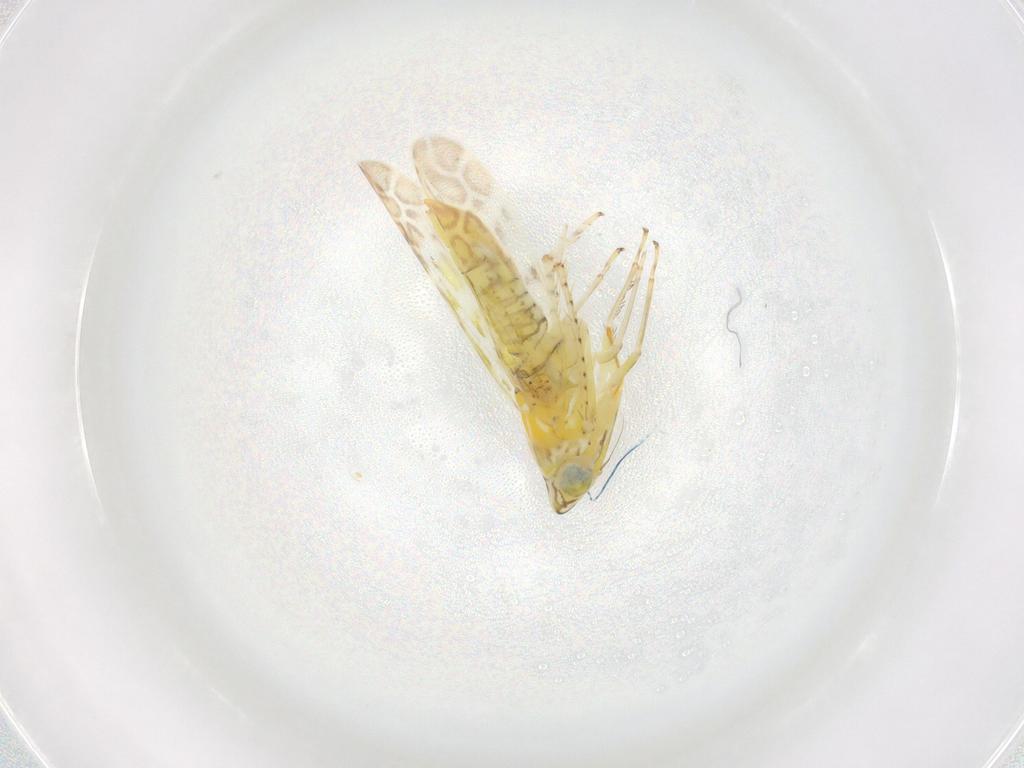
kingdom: Animalia
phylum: Arthropoda
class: Insecta
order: Hemiptera
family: Cicadellidae
